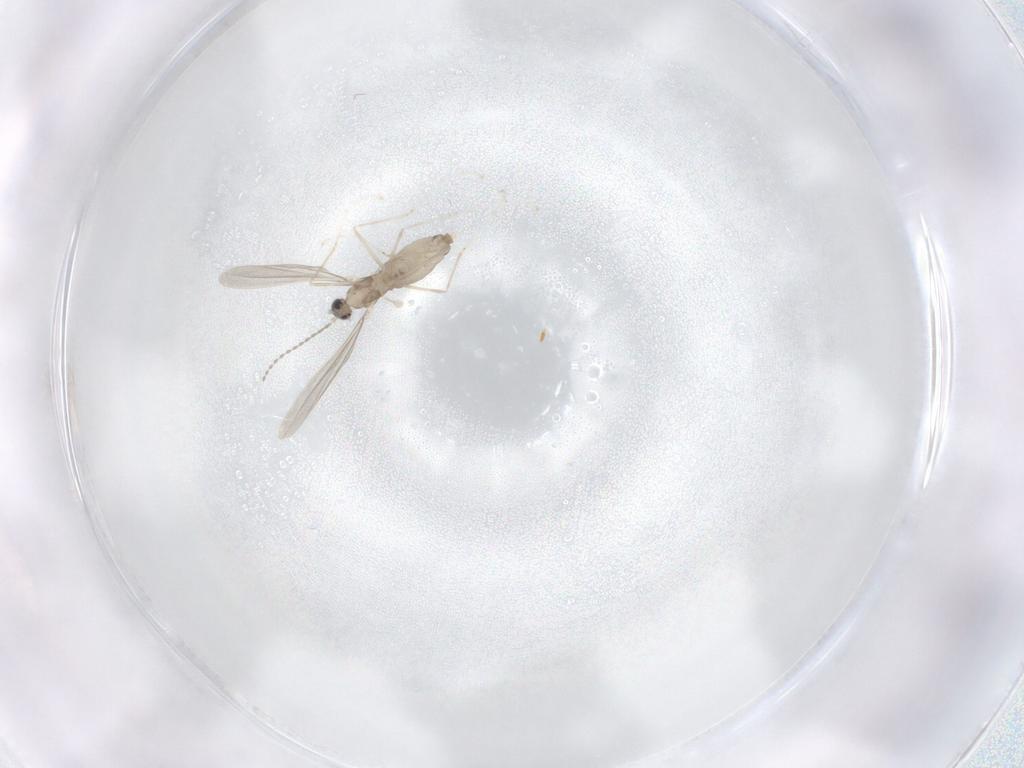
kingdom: Animalia
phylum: Arthropoda
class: Insecta
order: Diptera
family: Cecidomyiidae
